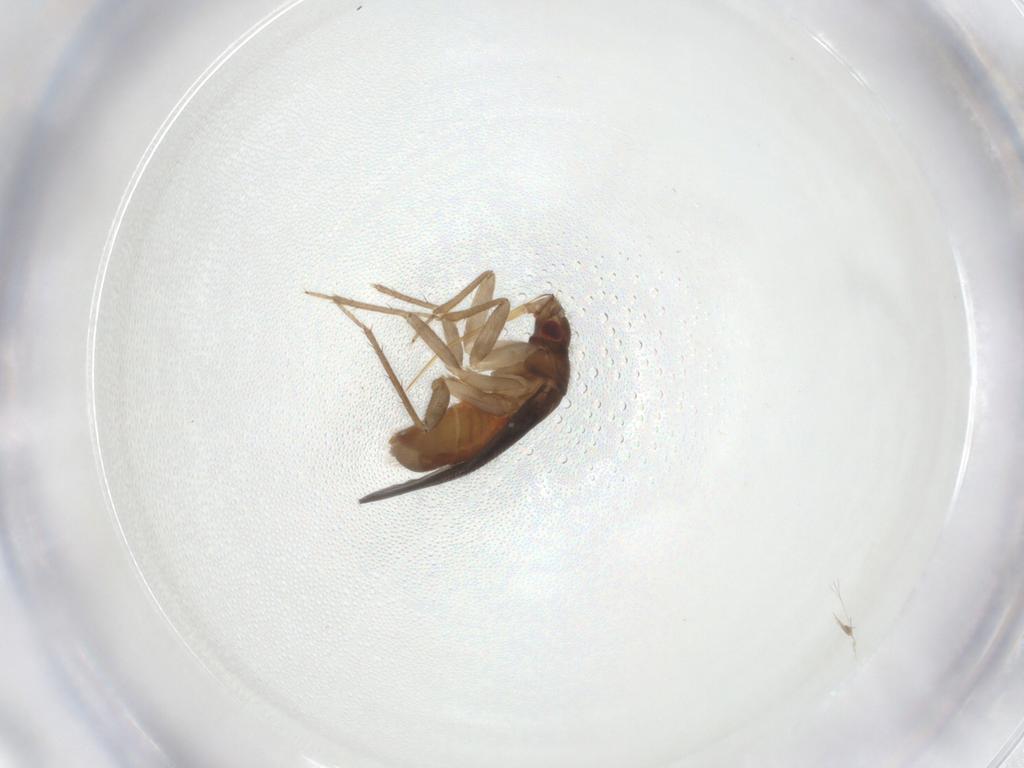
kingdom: Animalia
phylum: Arthropoda
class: Insecta
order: Hemiptera
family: Ceratocombidae
